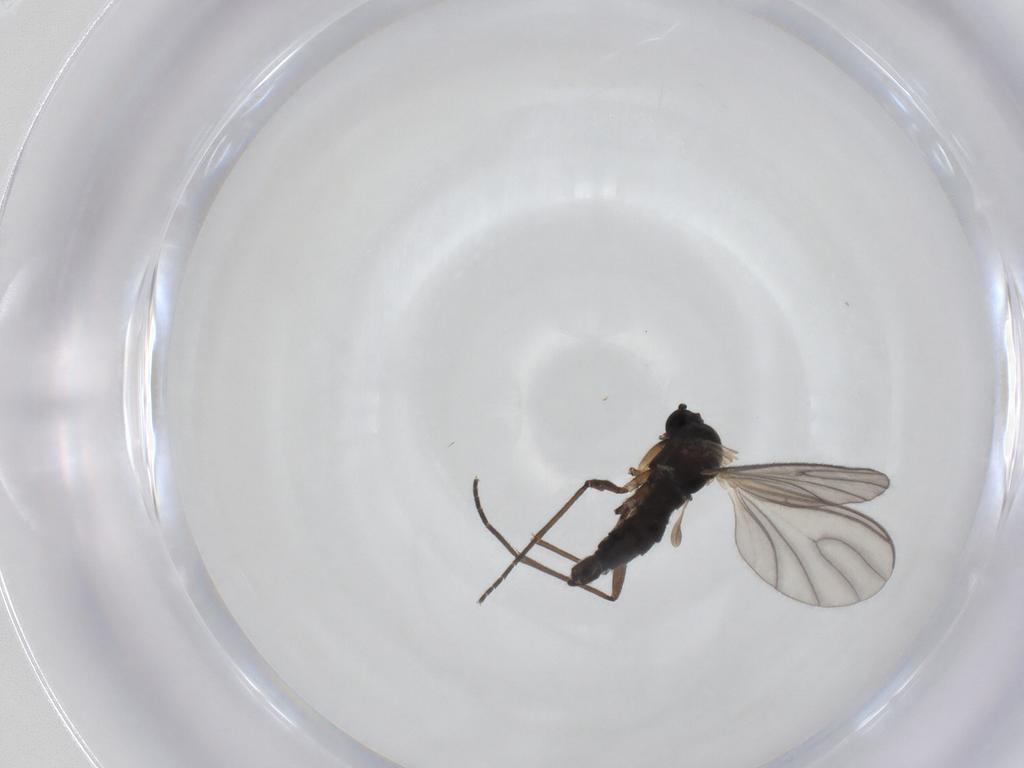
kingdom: Animalia
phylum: Arthropoda
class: Insecta
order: Diptera
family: Sciaridae
